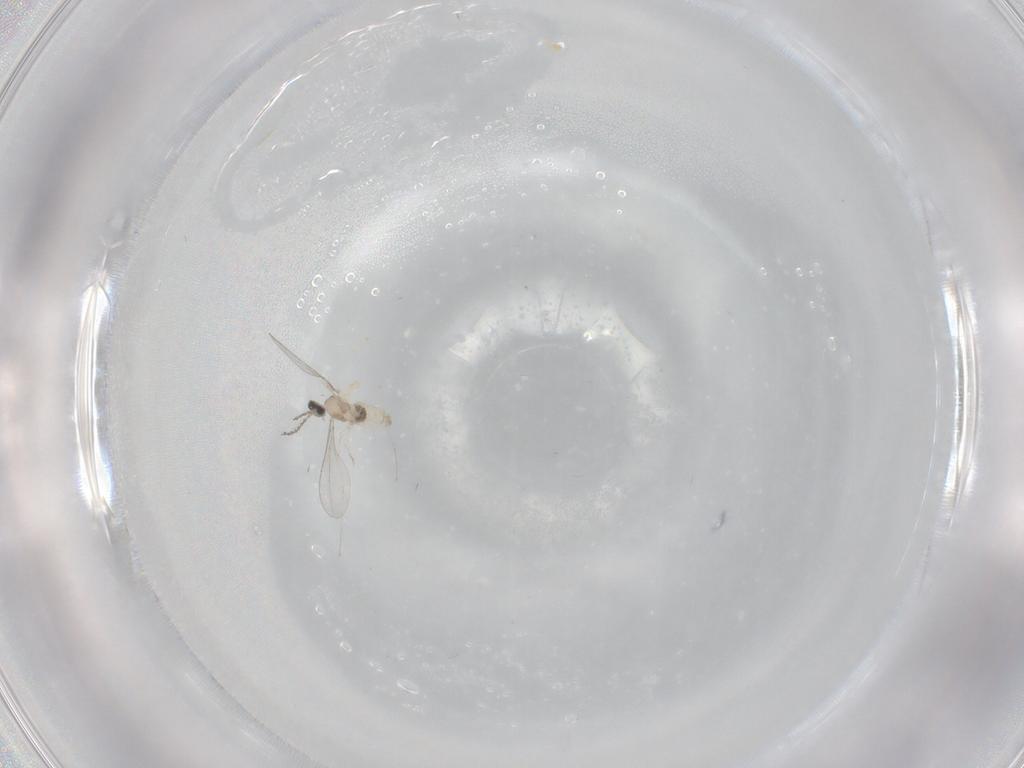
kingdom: Animalia
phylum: Arthropoda
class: Insecta
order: Diptera
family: Cecidomyiidae
